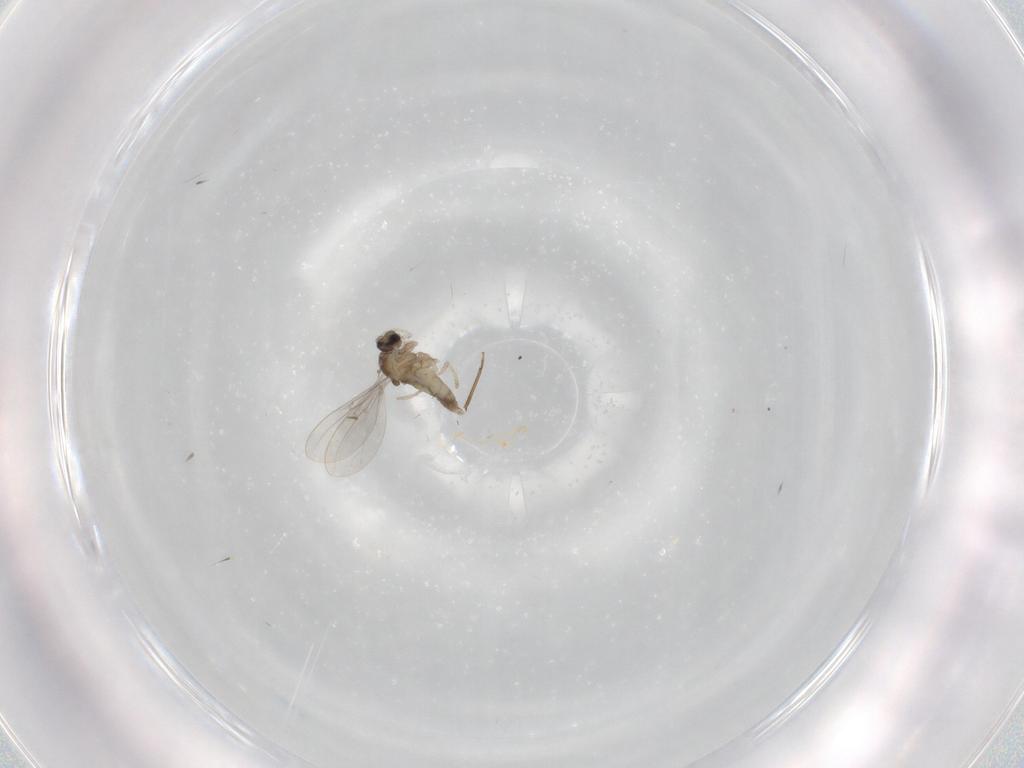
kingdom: Animalia
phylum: Arthropoda
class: Insecta
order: Diptera
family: Cecidomyiidae
